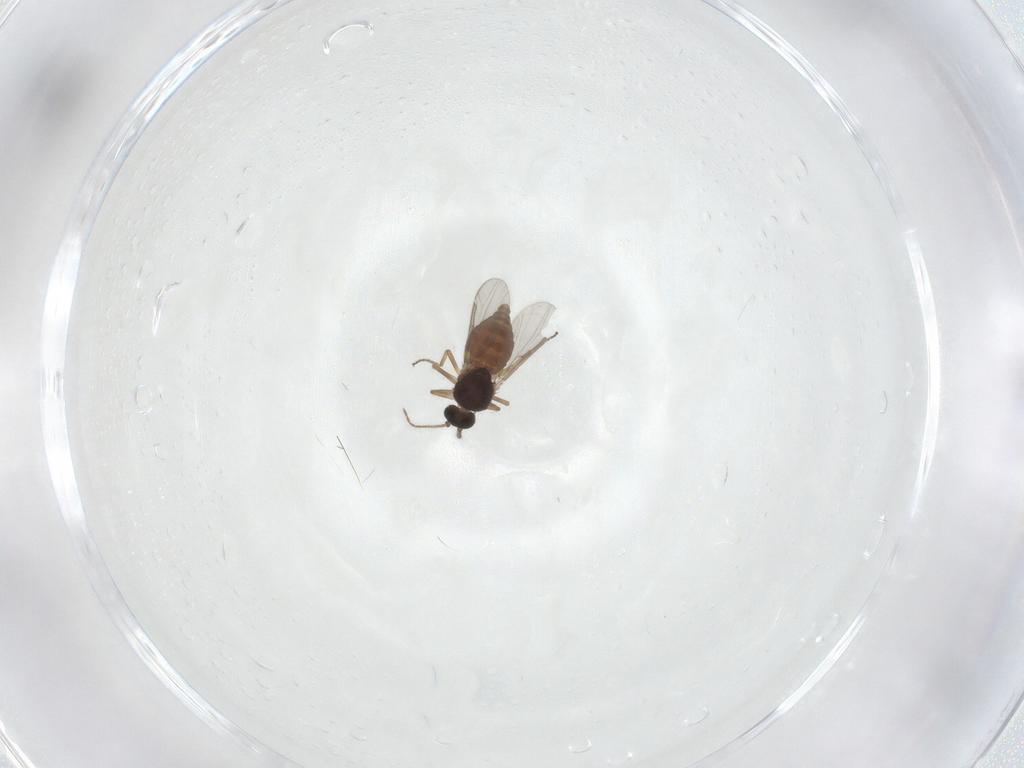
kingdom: Animalia
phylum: Arthropoda
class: Insecta
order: Diptera
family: Ceratopogonidae
